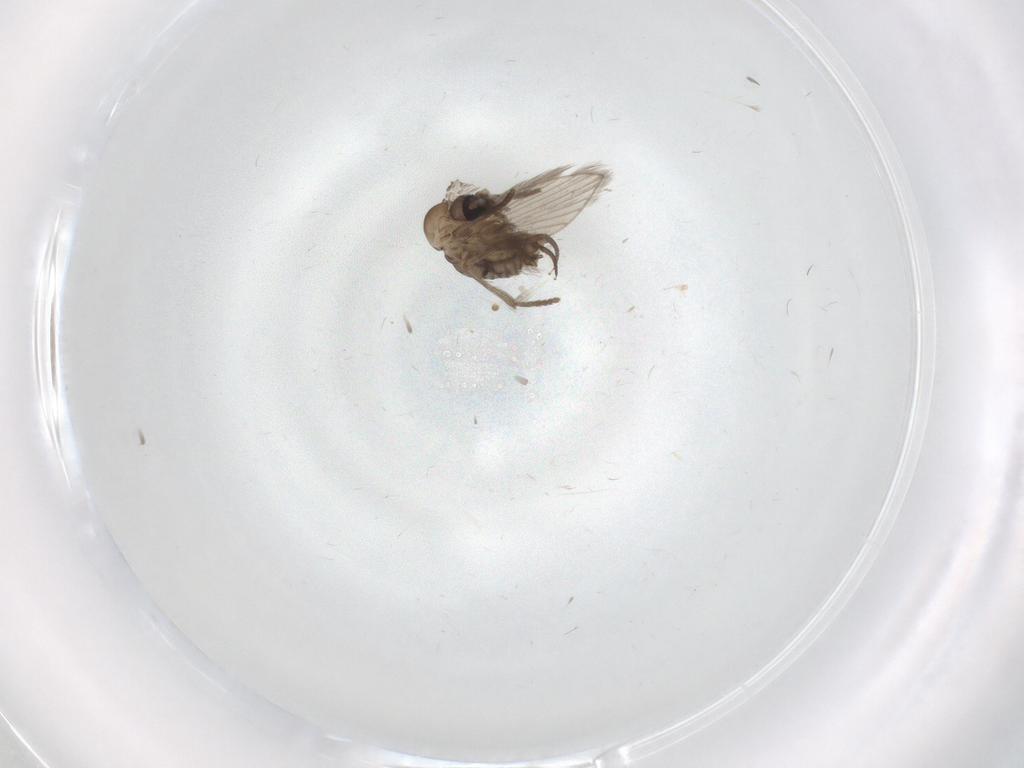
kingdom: Animalia
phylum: Arthropoda
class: Insecta
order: Diptera
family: Psychodidae
